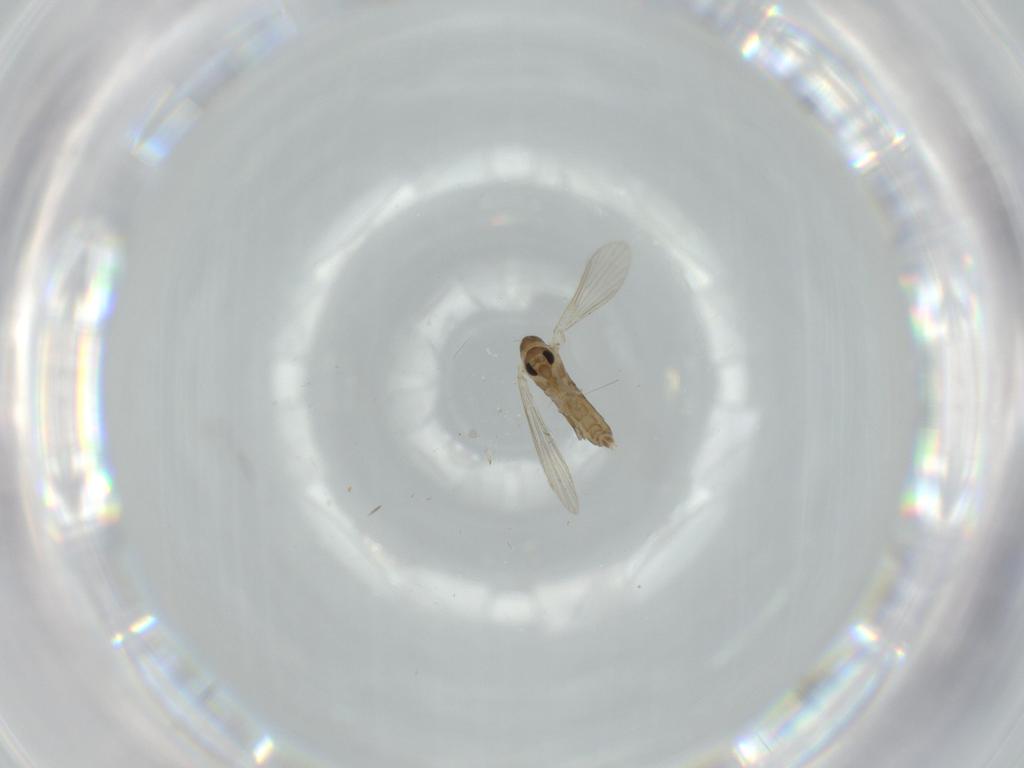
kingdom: Animalia
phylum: Arthropoda
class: Insecta
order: Diptera
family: Psychodidae
